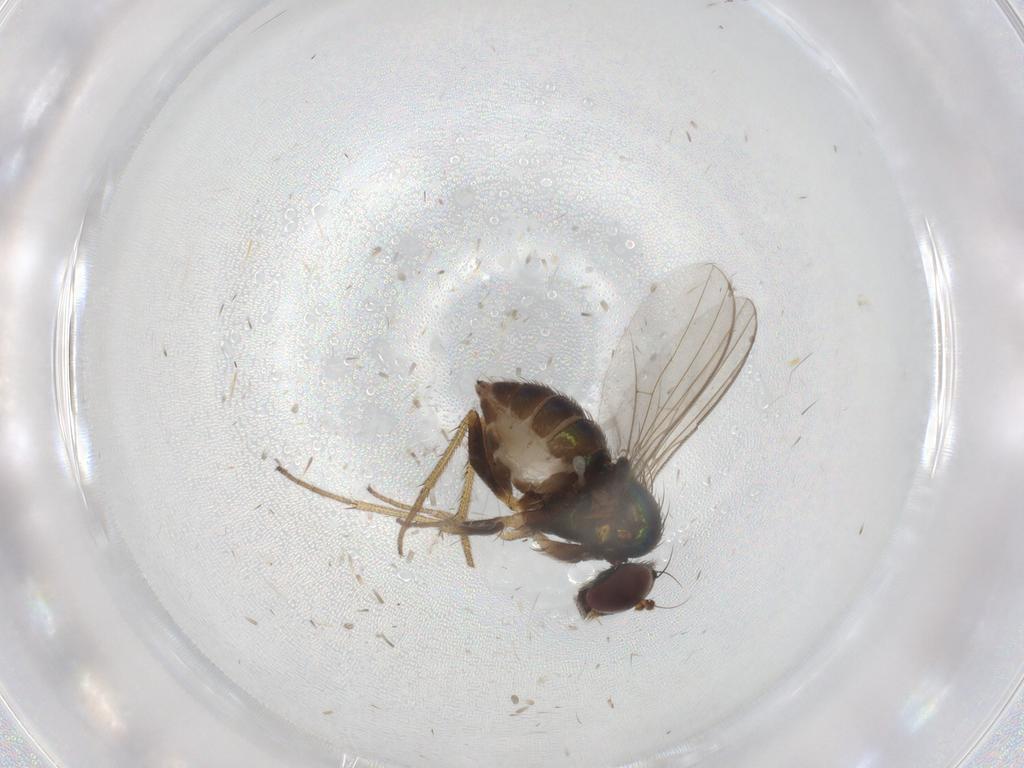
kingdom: Animalia
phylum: Arthropoda
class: Insecta
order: Diptera
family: Dolichopodidae
